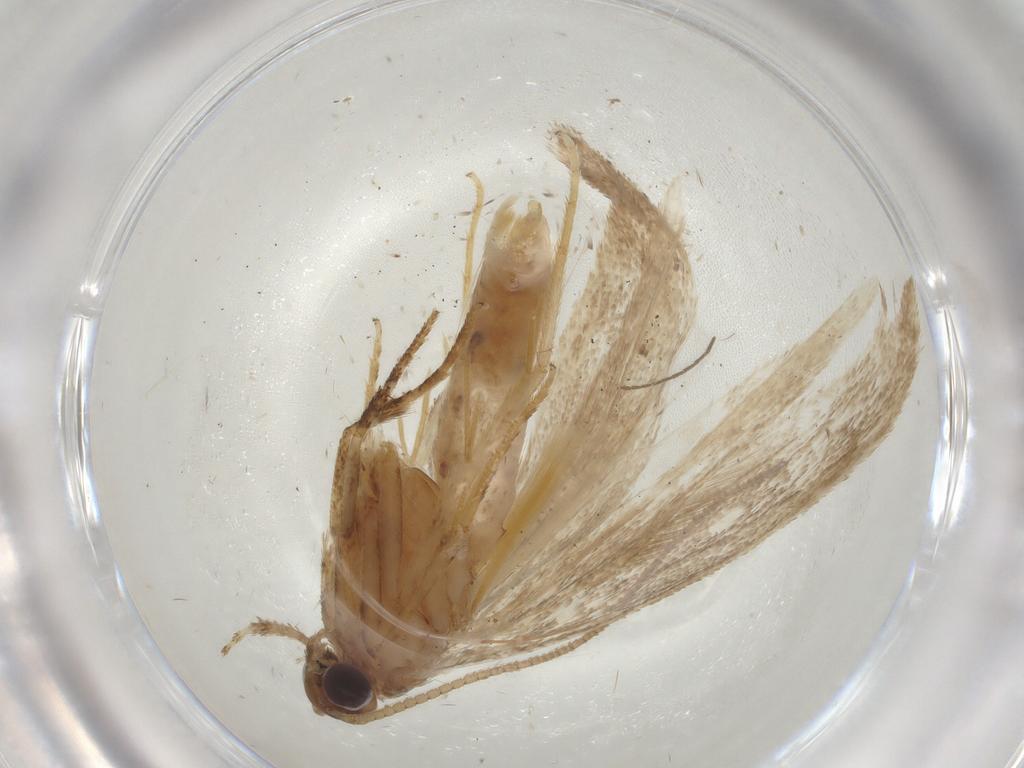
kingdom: Animalia
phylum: Arthropoda
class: Insecta
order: Lepidoptera
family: Gelechiidae
